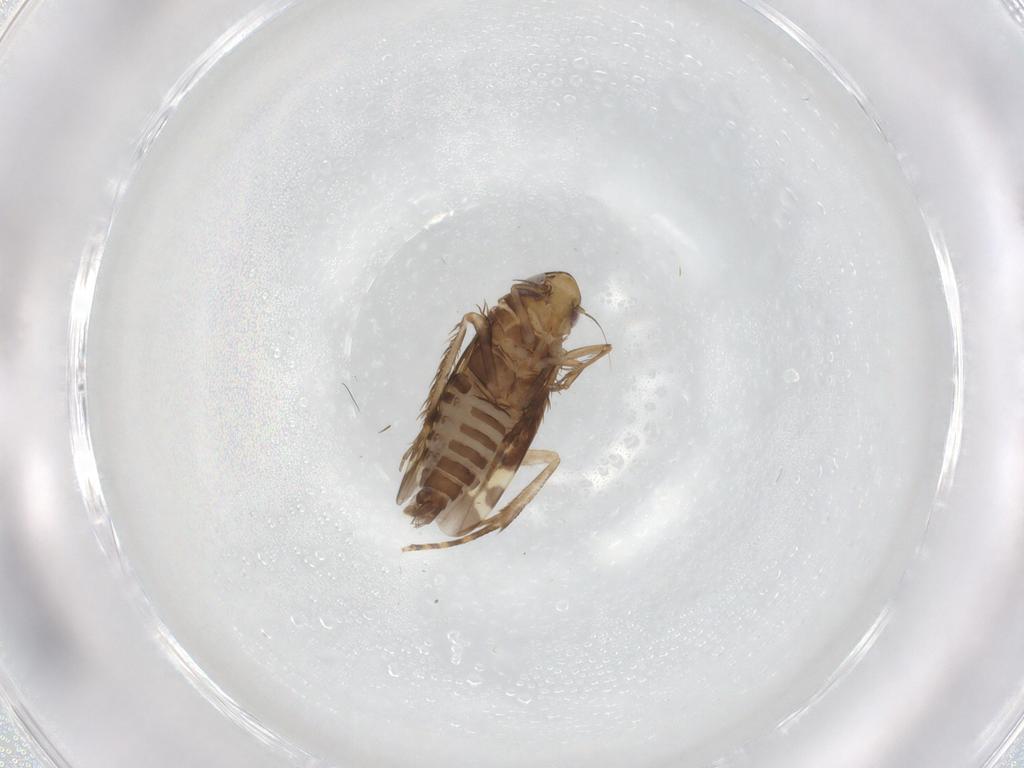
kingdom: Animalia
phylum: Arthropoda
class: Insecta
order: Hemiptera
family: Cicadellidae
